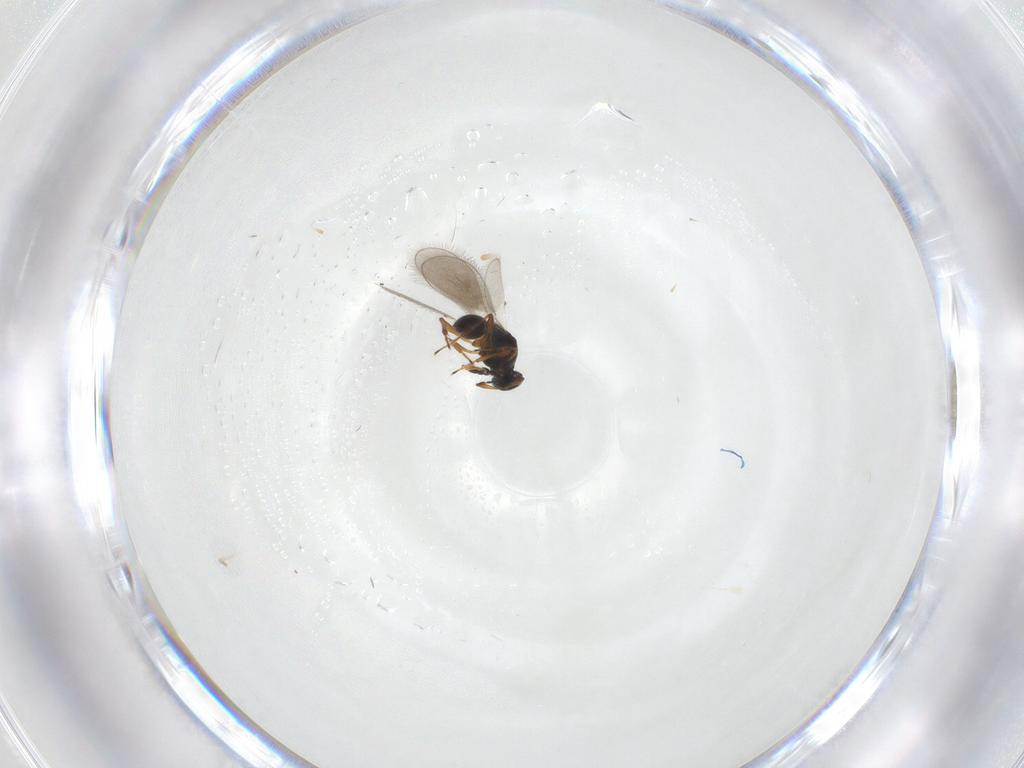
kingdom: Animalia
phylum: Arthropoda
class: Insecta
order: Hymenoptera
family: Platygastridae
